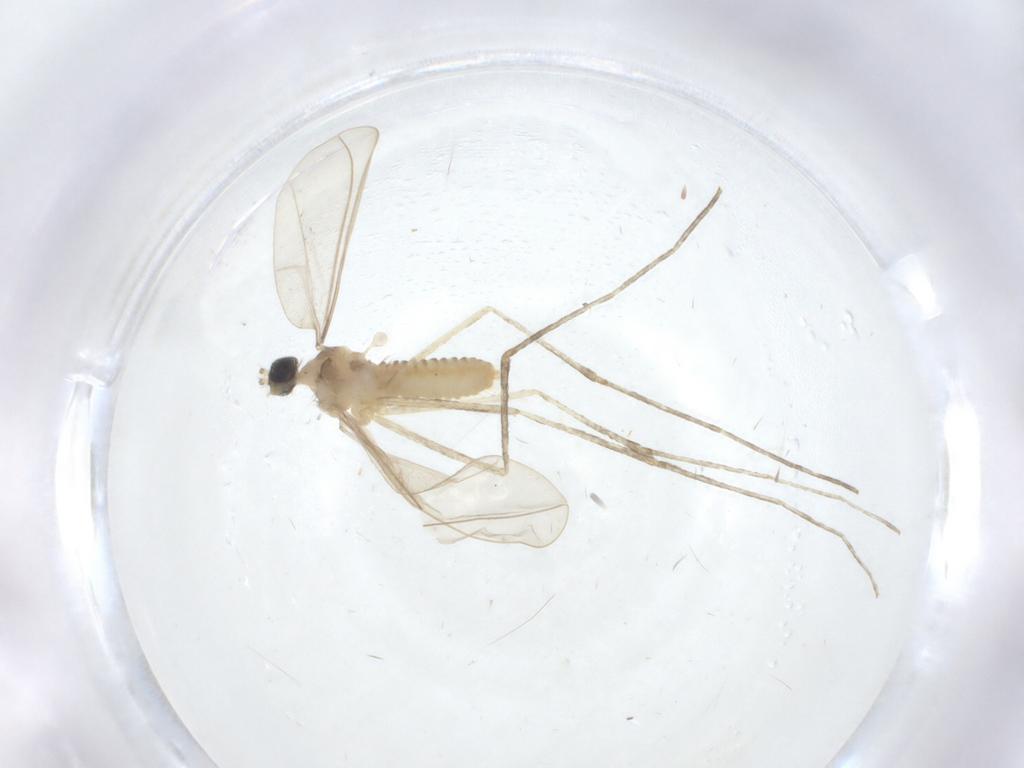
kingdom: Animalia
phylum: Arthropoda
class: Insecta
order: Diptera
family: Cecidomyiidae
